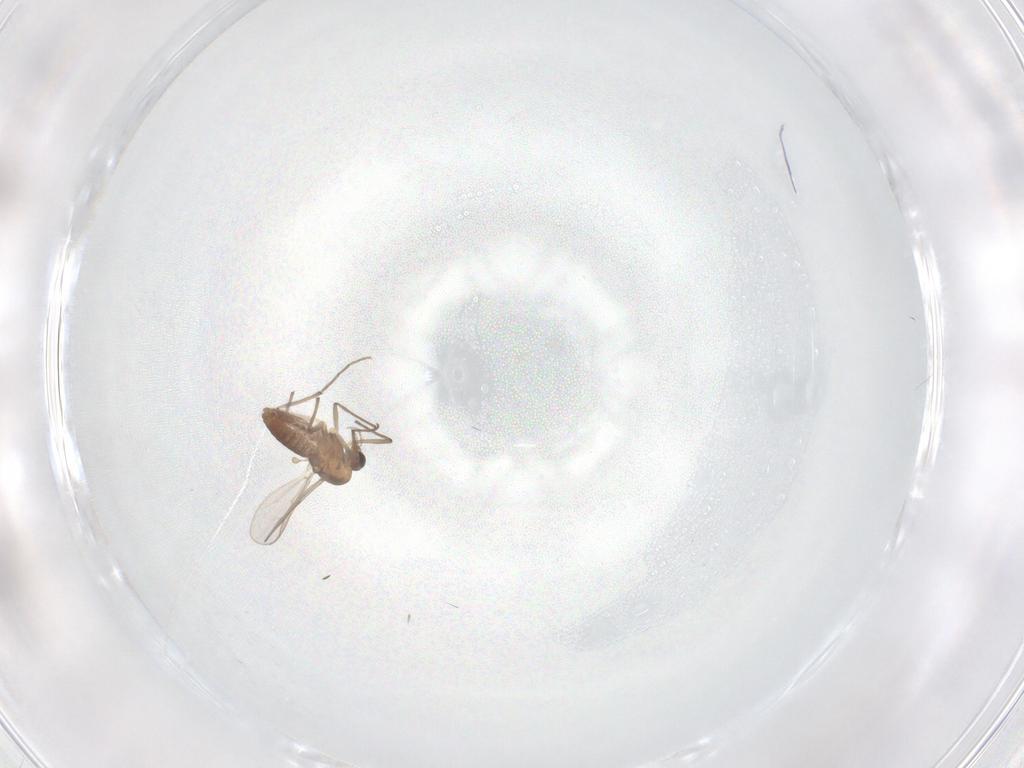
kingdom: Animalia
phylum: Arthropoda
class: Insecta
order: Diptera
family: Chironomidae
